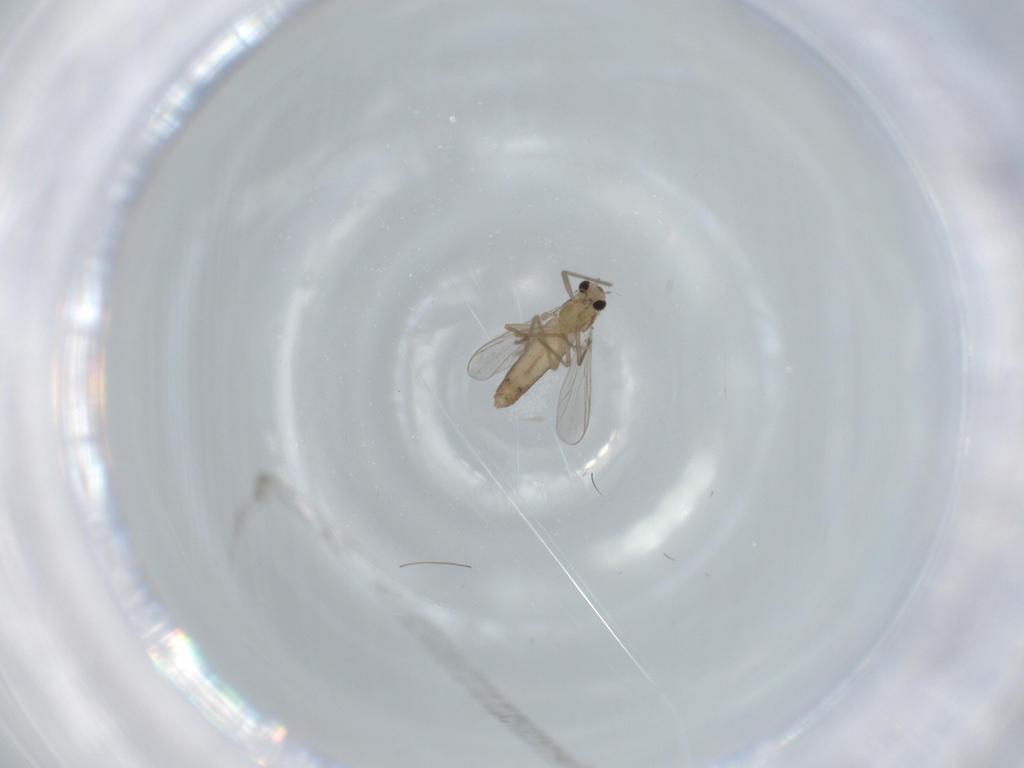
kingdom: Animalia
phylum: Arthropoda
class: Insecta
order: Diptera
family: Chironomidae
